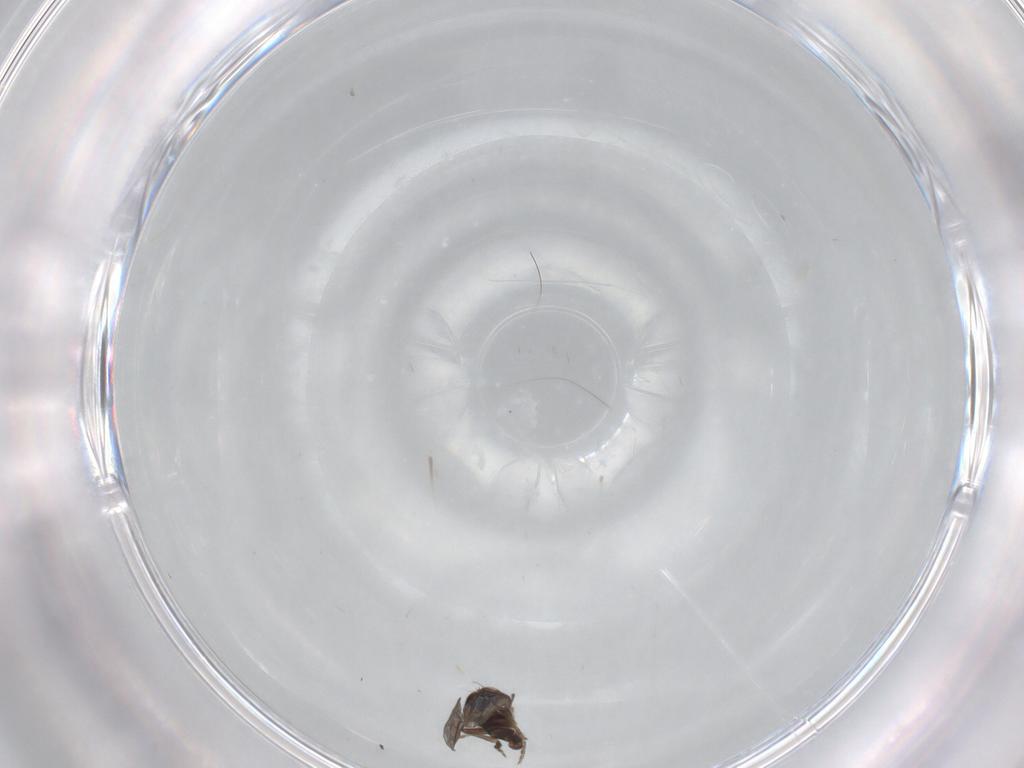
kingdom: Animalia
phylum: Arthropoda
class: Insecta
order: Diptera
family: Drosophilidae
